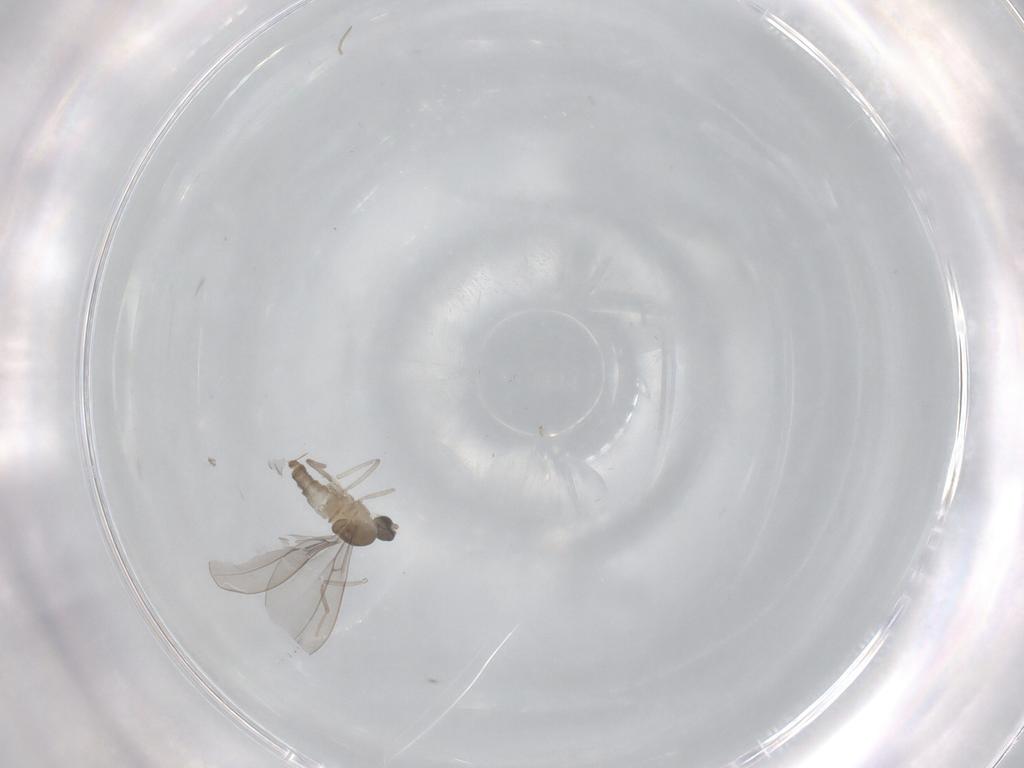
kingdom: Animalia
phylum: Arthropoda
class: Insecta
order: Diptera
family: Cecidomyiidae
